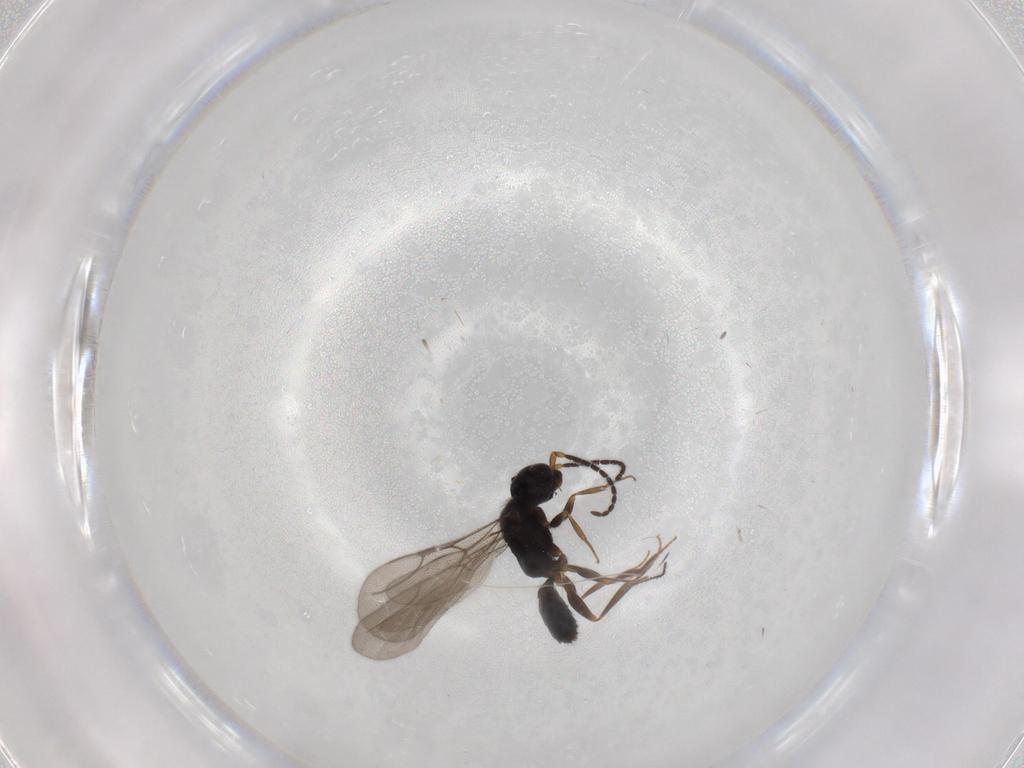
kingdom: Animalia
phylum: Arthropoda
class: Insecta
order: Hymenoptera
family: Bethylidae
